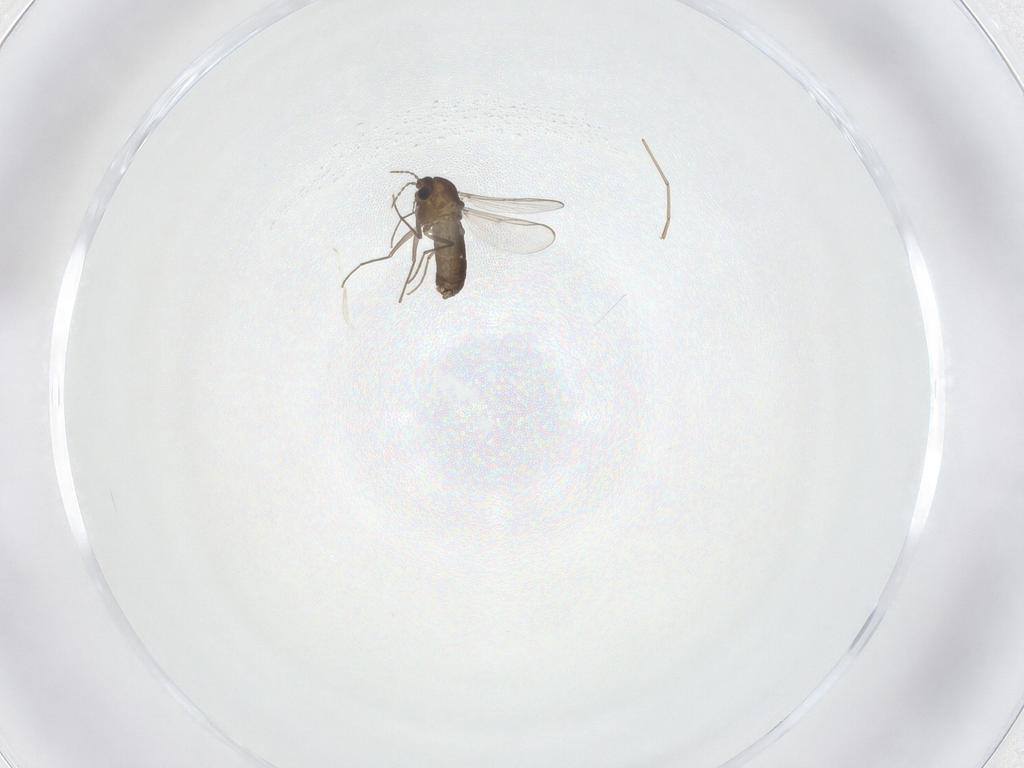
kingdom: Animalia
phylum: Arthropoda
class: Insecta
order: Diptera
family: Chironomidae
